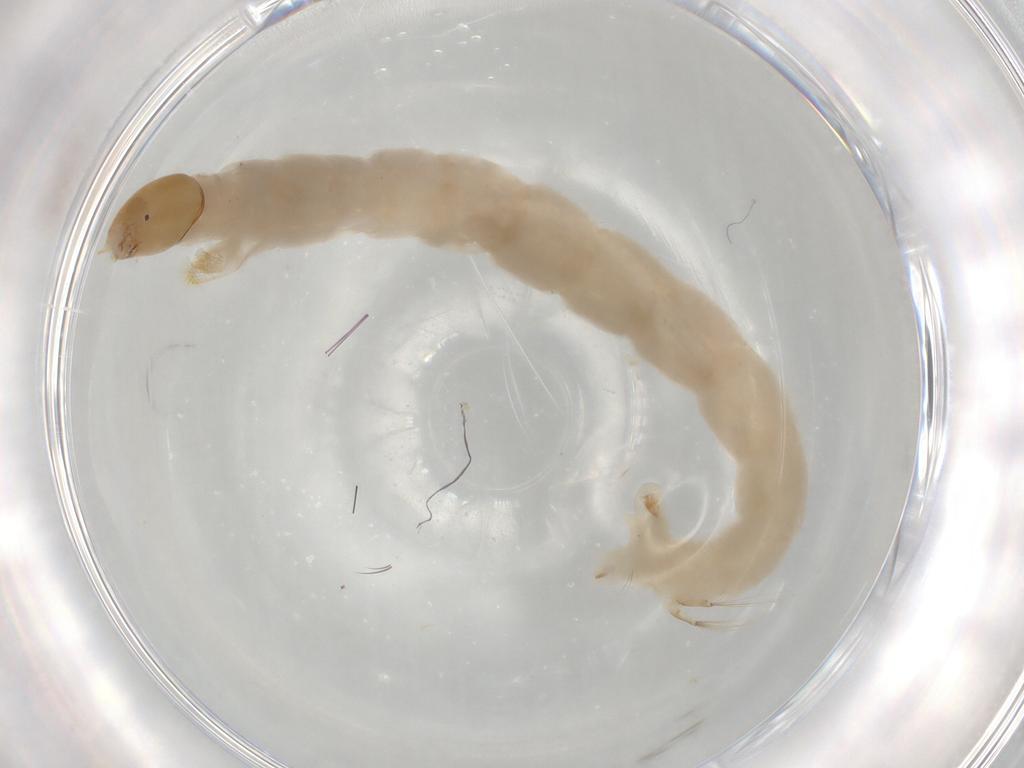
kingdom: Animalia
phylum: Arthropoda
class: Insecta
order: Diptera
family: Chironomidae
